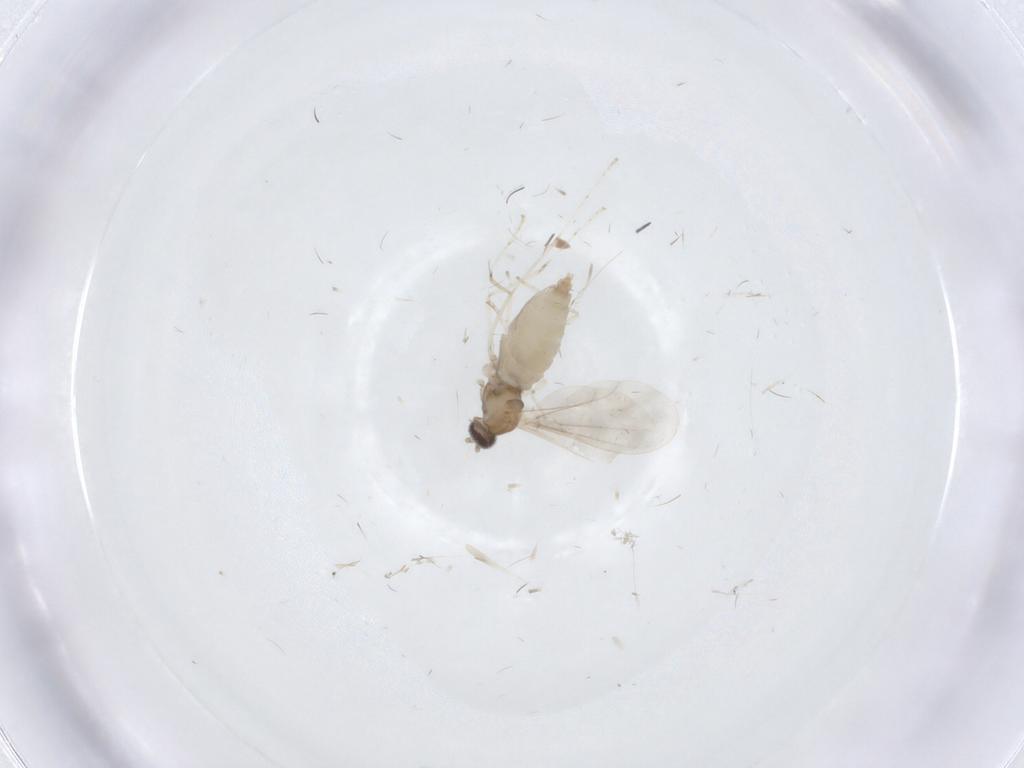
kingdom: Animalia
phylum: Arthropoda
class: Insecta
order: Diptera
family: Cecidomyiidae
